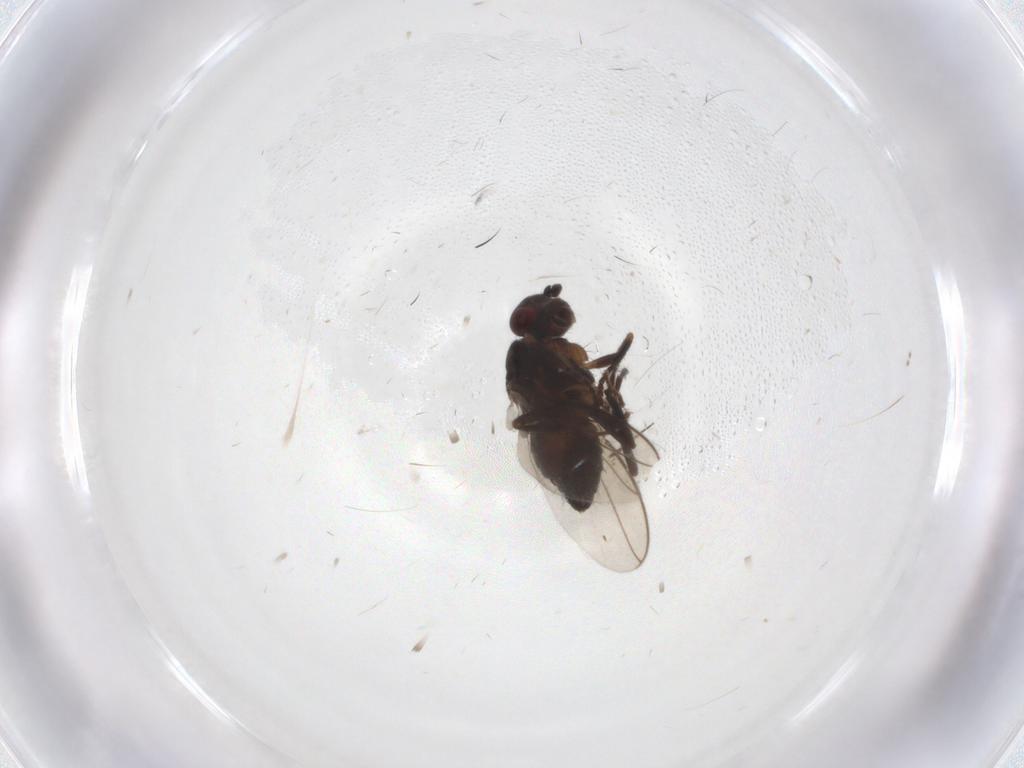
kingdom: Animalia
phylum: Arthropoda
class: Insecta
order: Diptera
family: Sphaeroceridae
